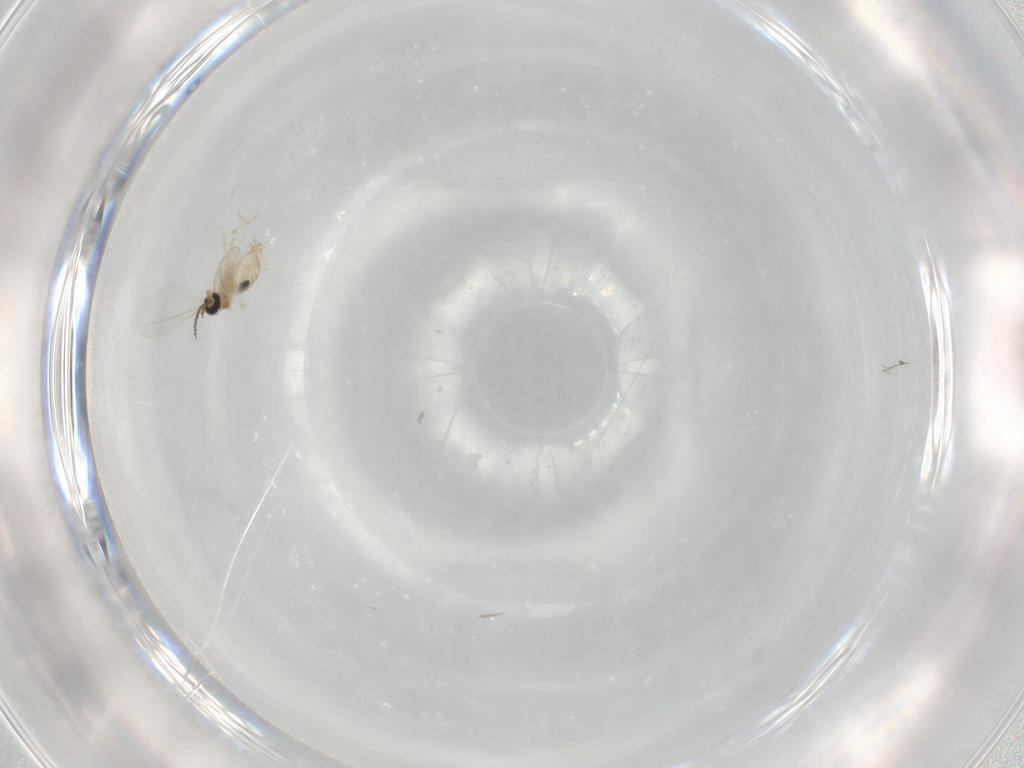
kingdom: Animalia
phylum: Arthropoda
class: Insecta
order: Diptera
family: Cecidomyiidae
